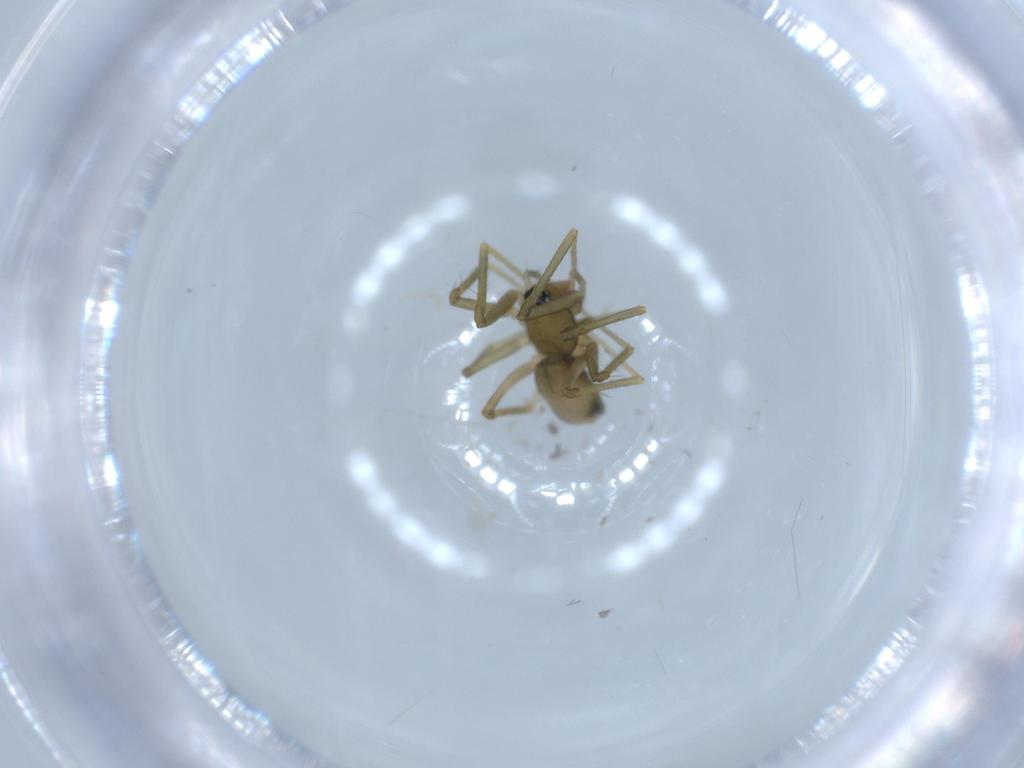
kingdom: Animalia
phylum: Arthropoda
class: Arachnida
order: Araneae
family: Linyphiidae
